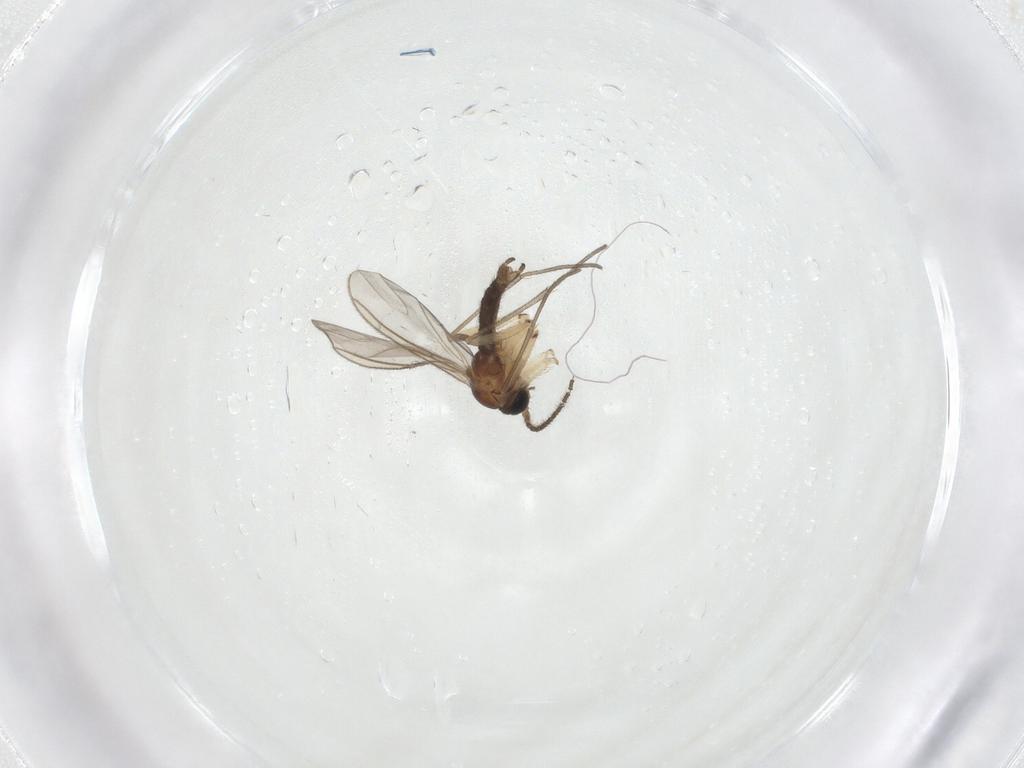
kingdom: Animalia
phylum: Arthropoda
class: Insecta
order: Diptera
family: Sciaridae
